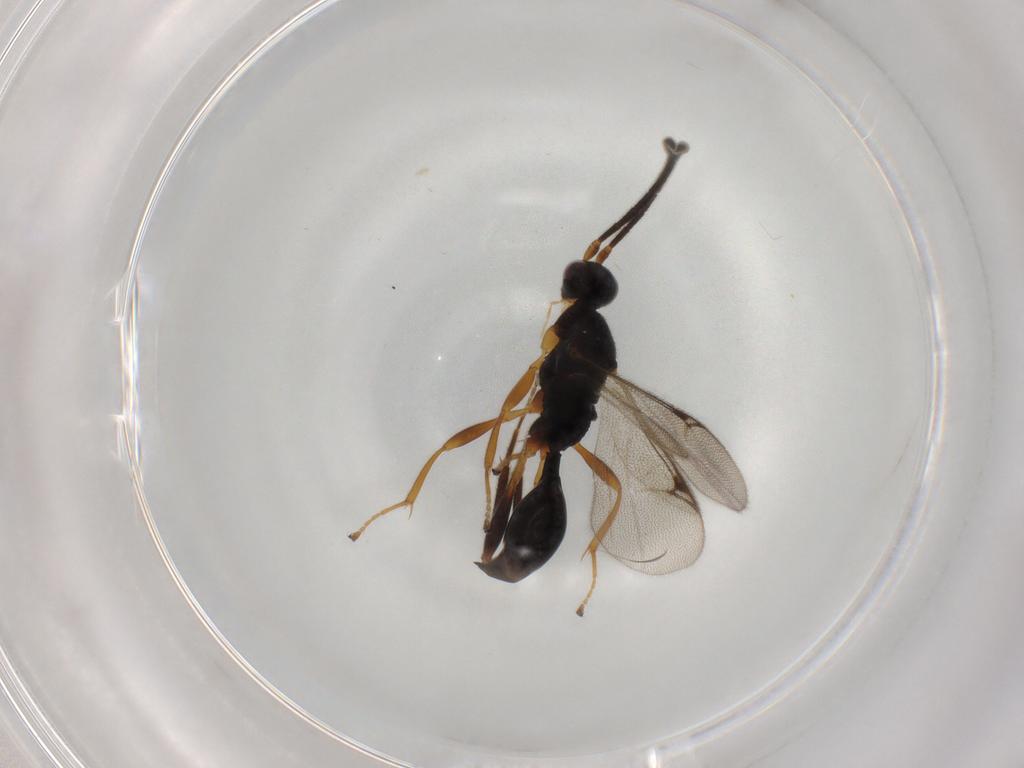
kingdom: Animalia
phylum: Arthropoda
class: Insecta
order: Hymenoptera
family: Proctotrupidae
